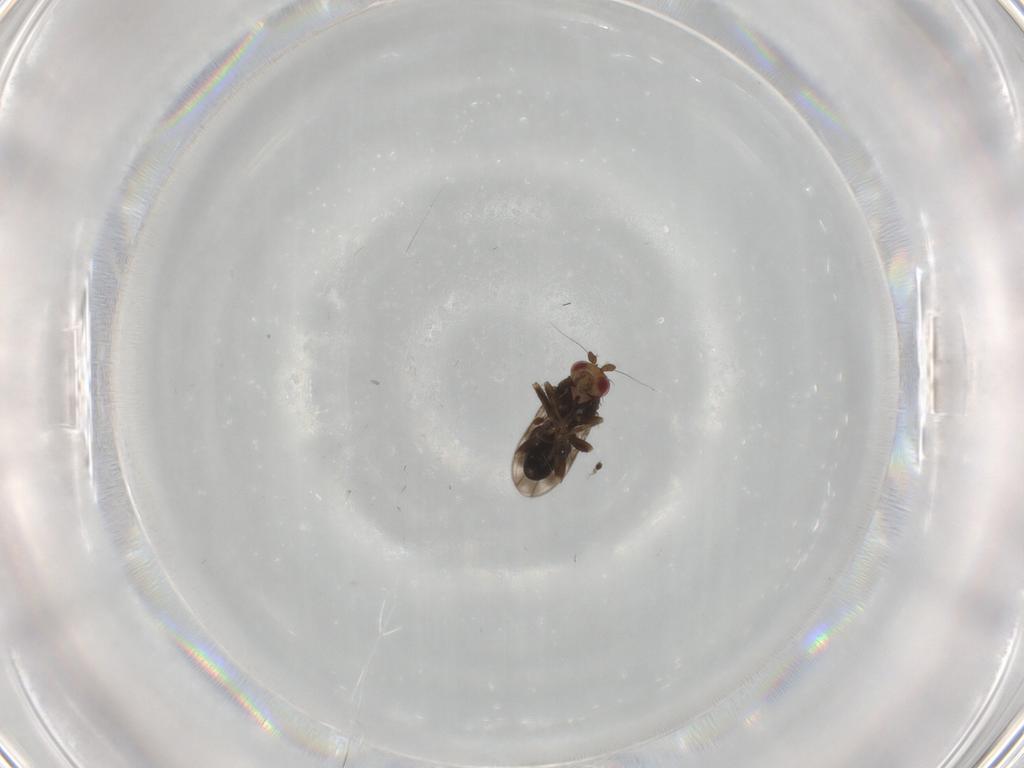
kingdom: Animalia
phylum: Arthropoda
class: Insecta
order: Diptera
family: Sphaeroceridae
